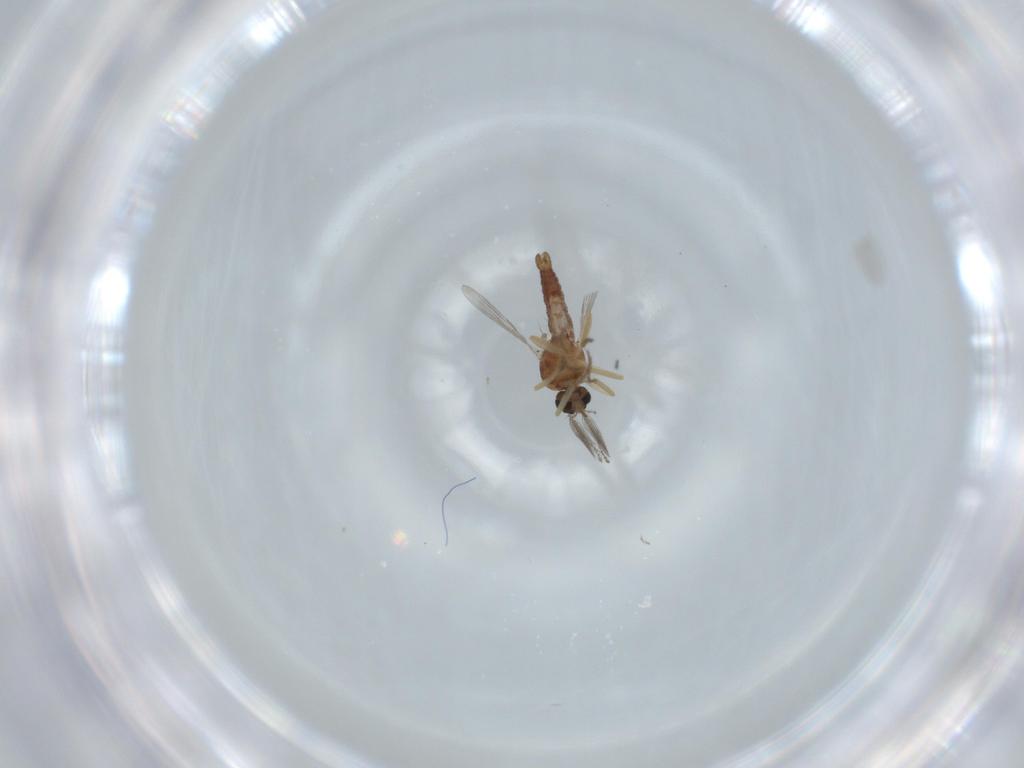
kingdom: Animalia
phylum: Arthropoda
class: Insecta
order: Diptera
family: Ceratopogonidae
